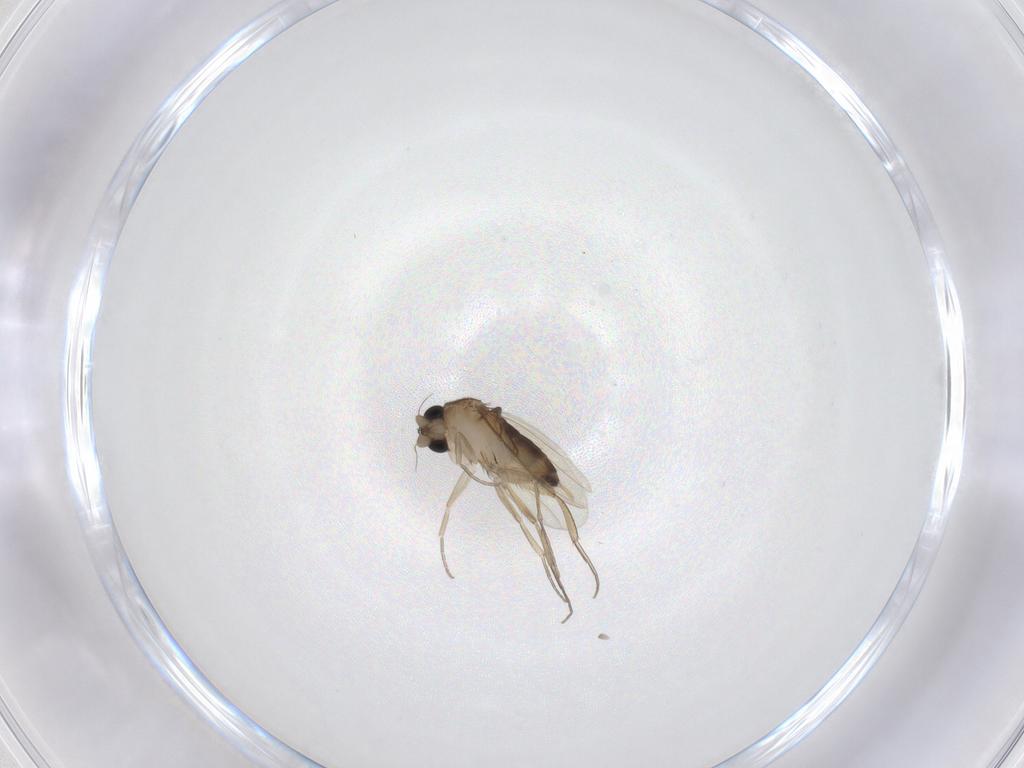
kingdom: Animalia
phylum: Arthropoda
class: Insecta
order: Diptera
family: Phoridae
